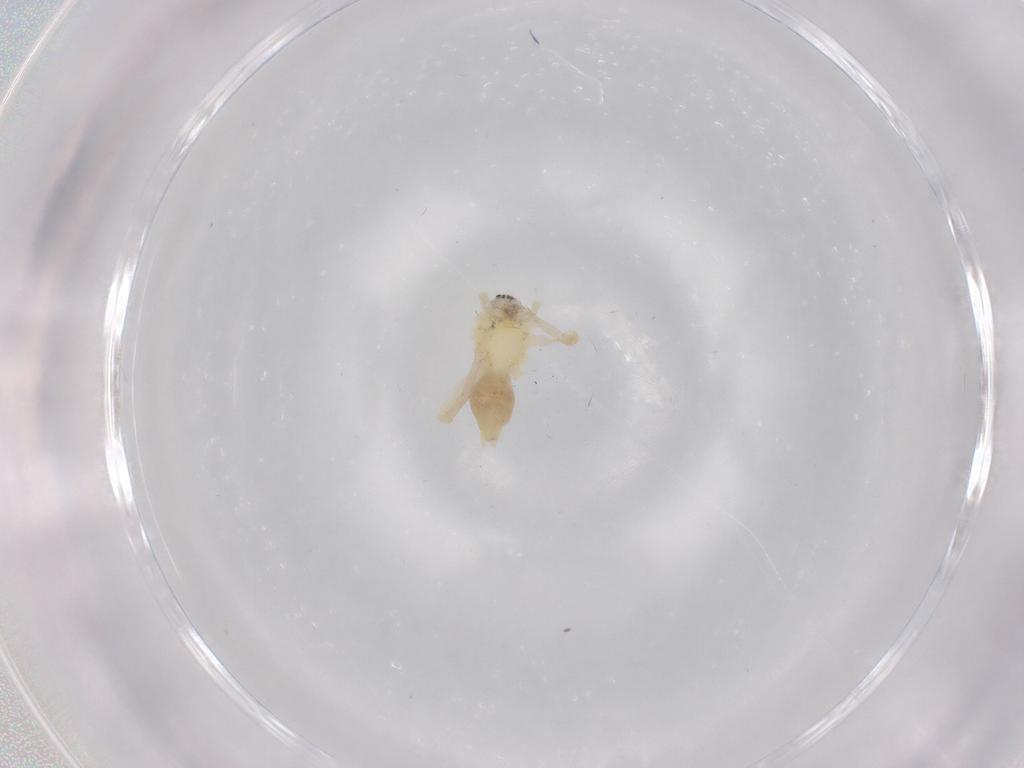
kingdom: Animalia
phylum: Arthropoda
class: Arachnida
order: Araneae
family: Anyphaenidae
